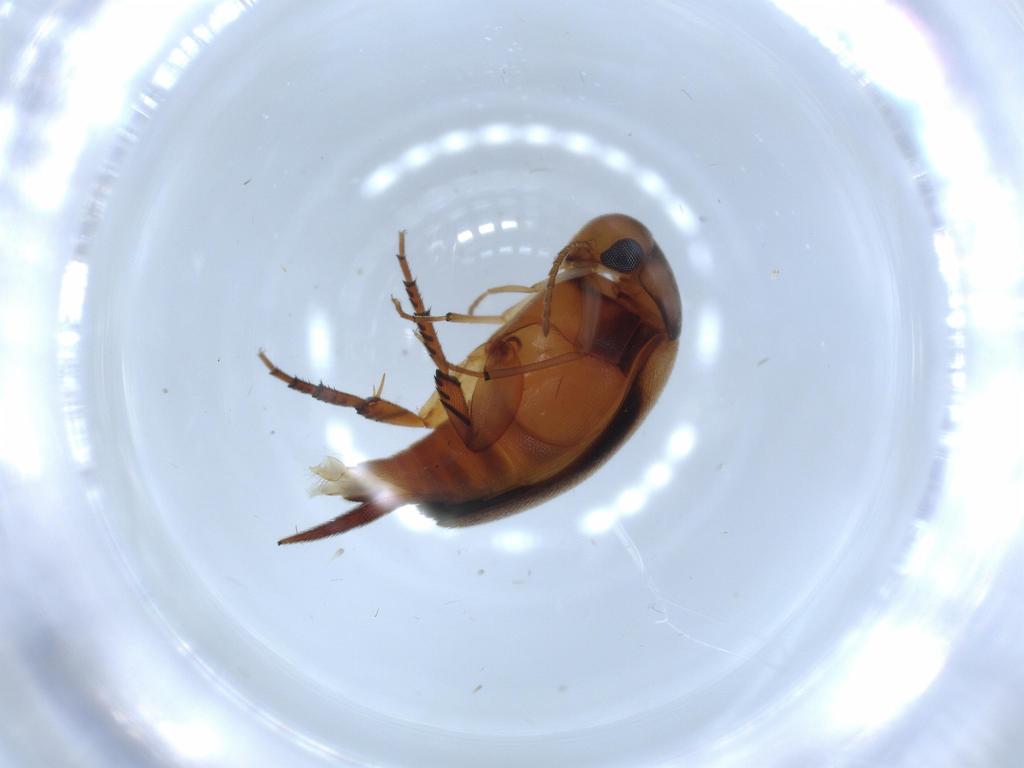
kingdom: Animalia
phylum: Arthropoda
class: Insecta
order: Coleoptera
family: Mordellidae
